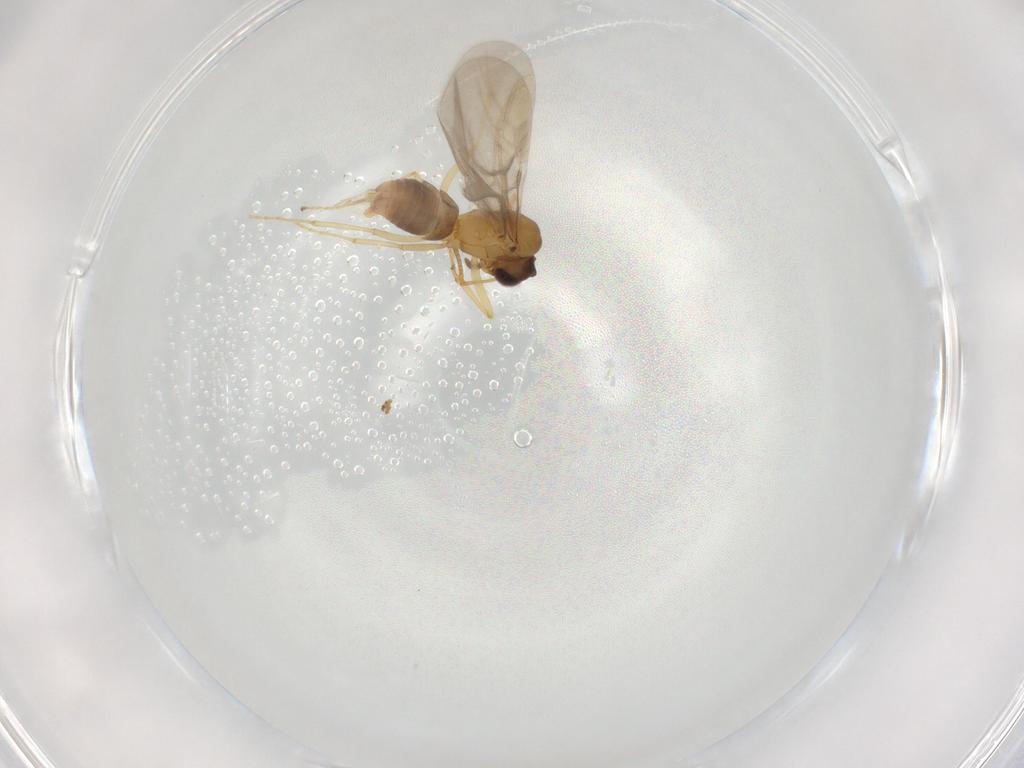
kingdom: Animalia
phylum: Arthropoda
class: Insecta
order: Hymenoptera
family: Formicidae
